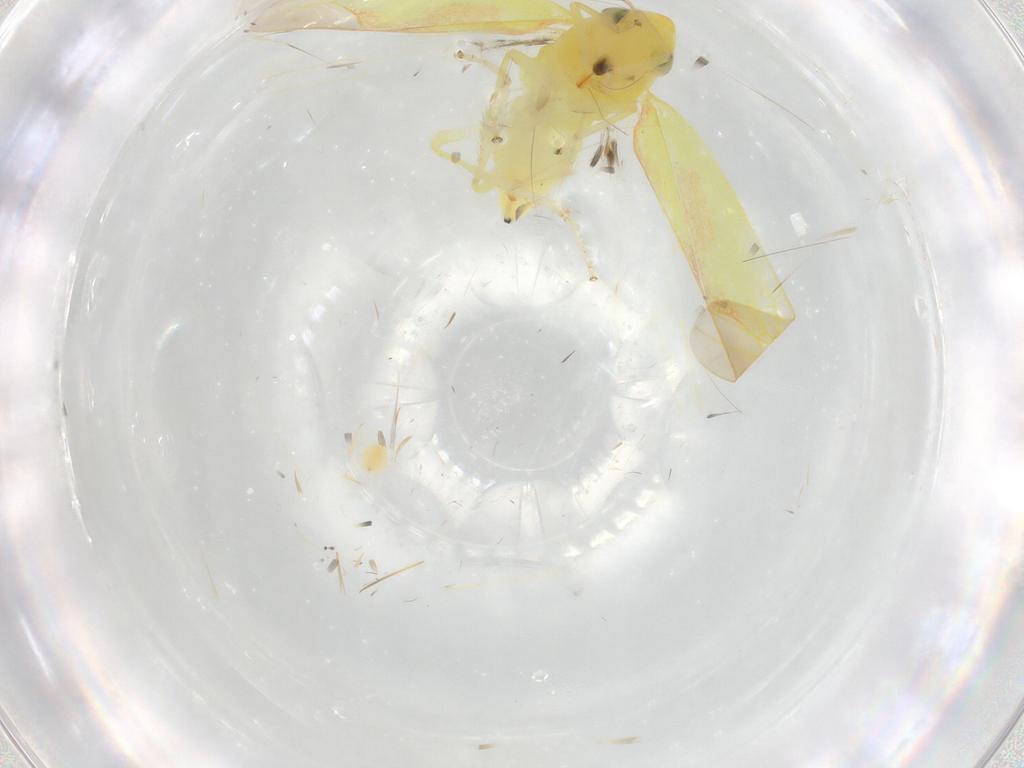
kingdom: Animalia
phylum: Arthropoda
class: Insecta
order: Hemiptera
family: Cicadellidae
